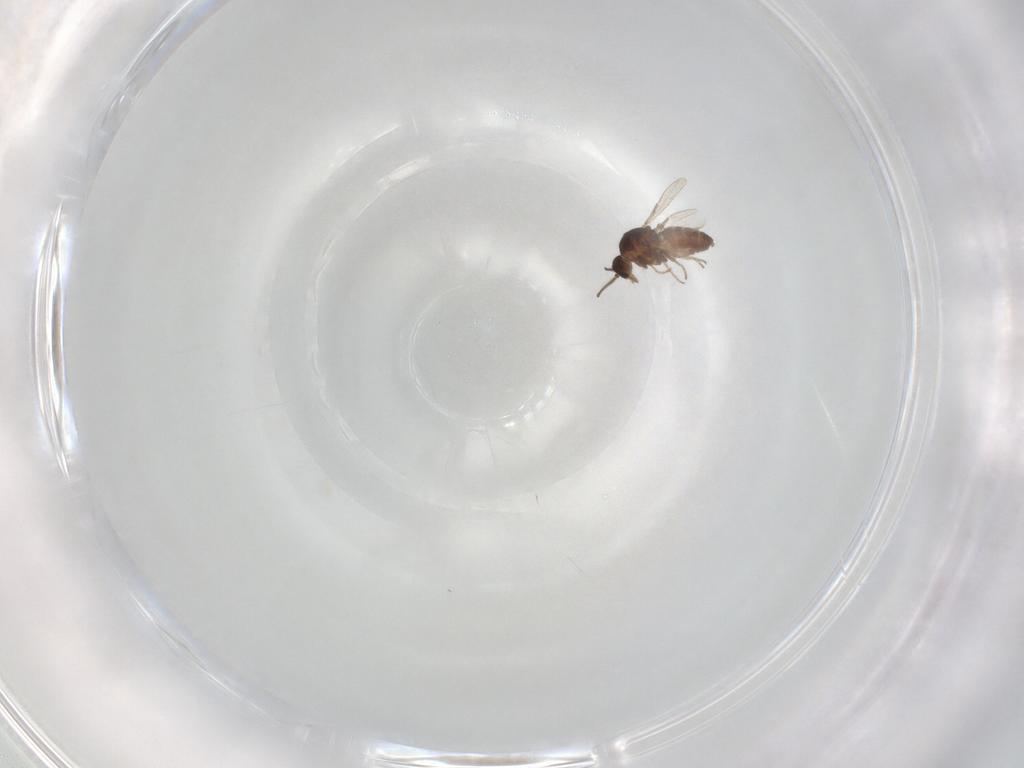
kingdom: Animalia
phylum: Arthropoda
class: Insecta
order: Diptera
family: Ceratopogonidae
